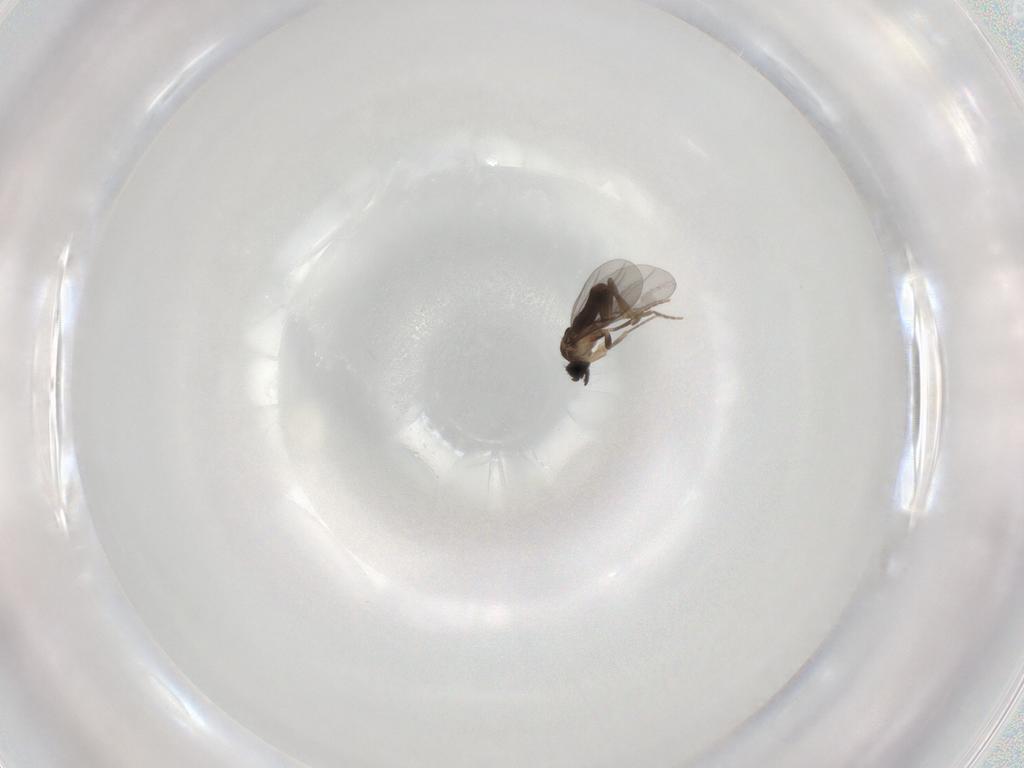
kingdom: Animalia
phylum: Arthropoda
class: Insecta
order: Diptera
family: Cecidomyiidae
